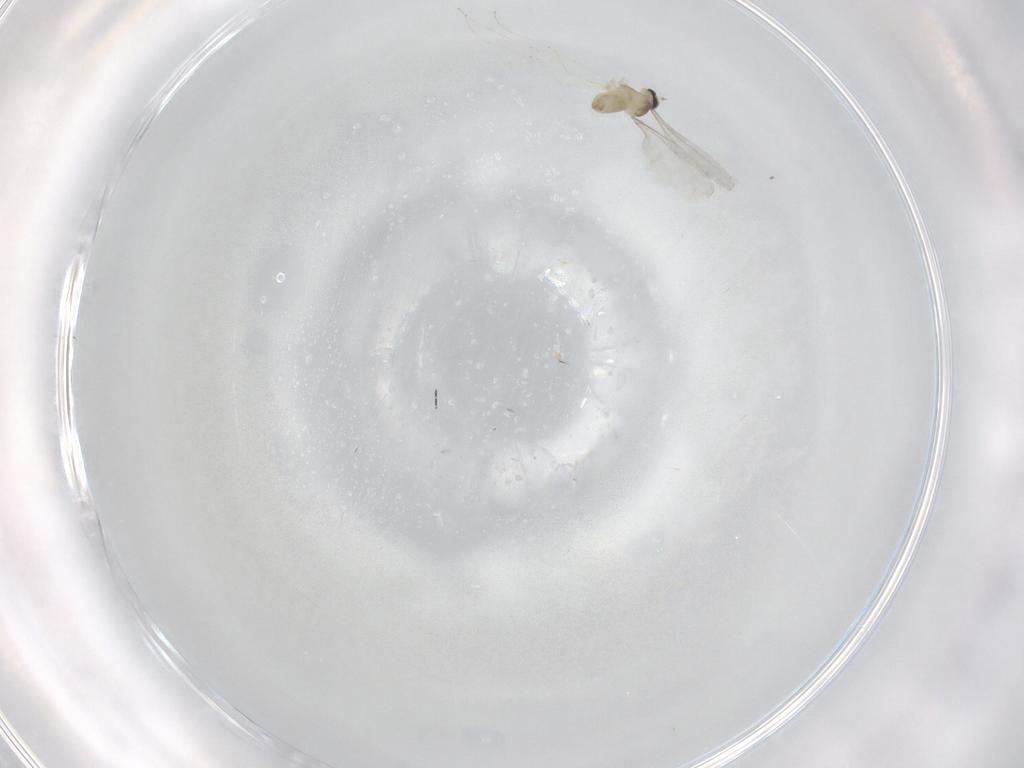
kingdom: Animalia
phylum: Arthropoda
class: Insecta
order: Diptera
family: Cecidomyiidae
